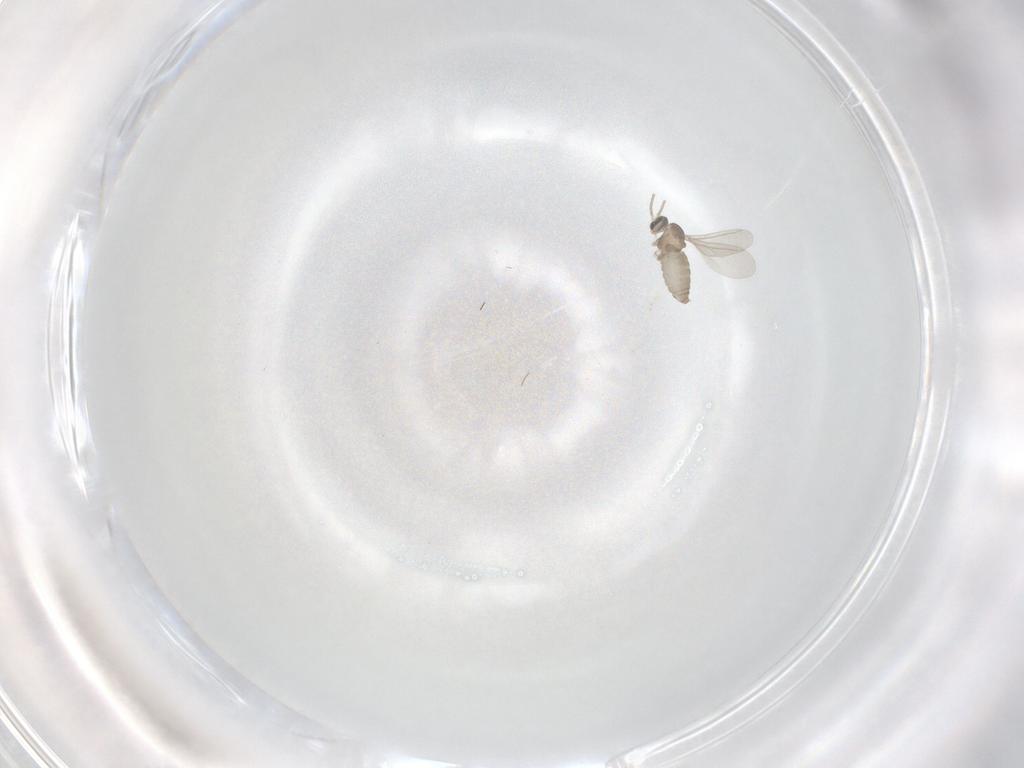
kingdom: Animalia
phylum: Arthropoda
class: Insecta
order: Diptera
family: Cecidomyiidae
